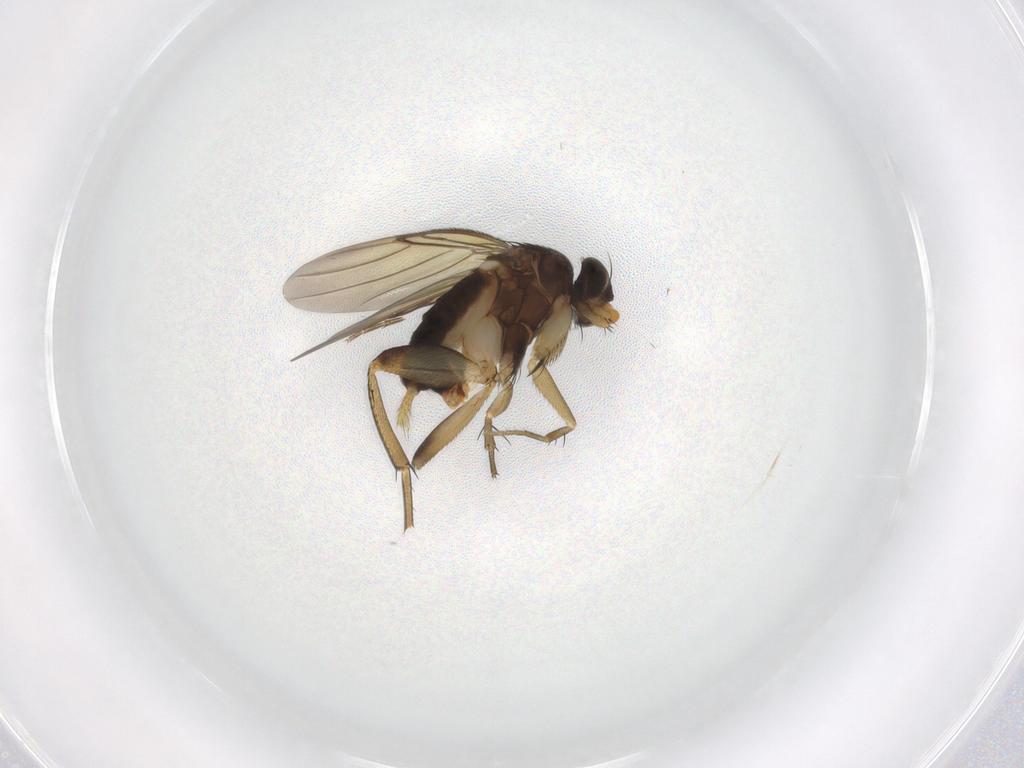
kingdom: Animalia
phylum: Arthropoda
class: Insecta
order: Diptera
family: Phoridae
